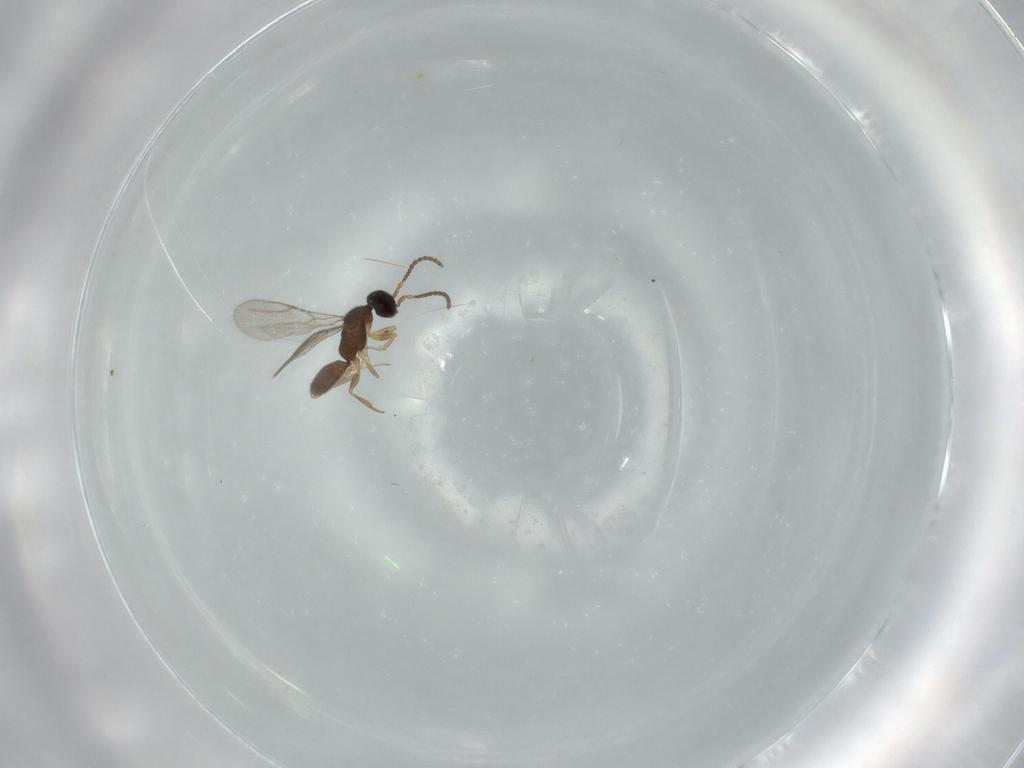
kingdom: Animalia
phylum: Arthropoda
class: Insecta
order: Hymenoptera
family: Bethylidae
